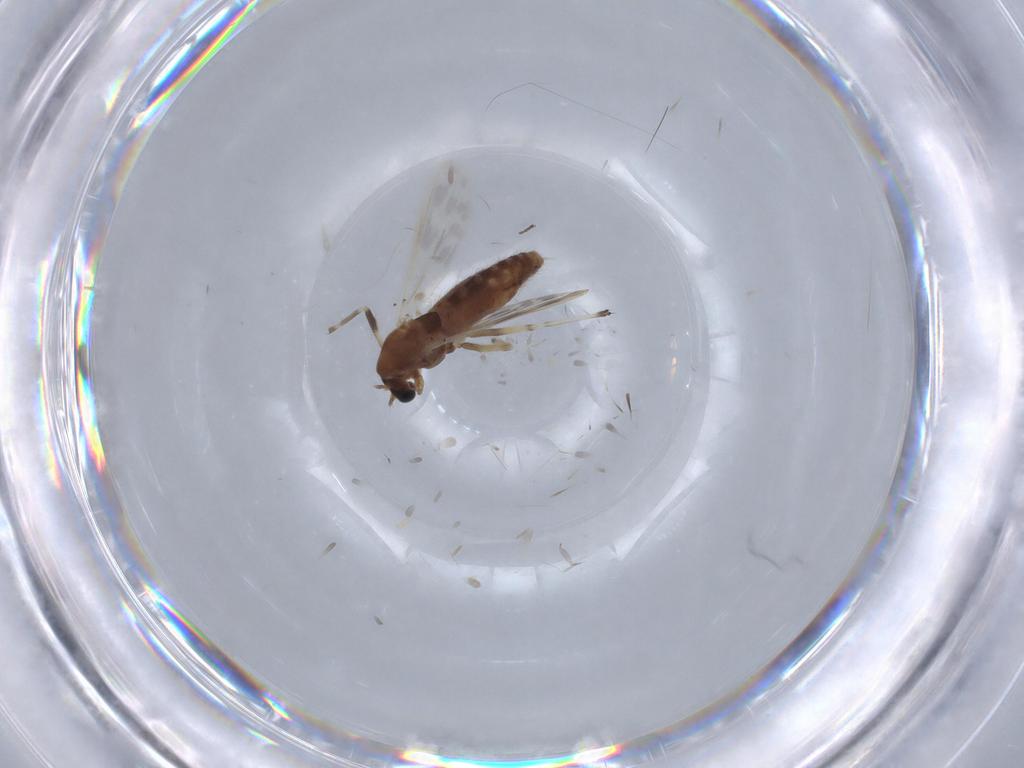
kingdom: Animalia
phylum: Arthropoda
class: Insecta
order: Diptera
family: Chironomidae
